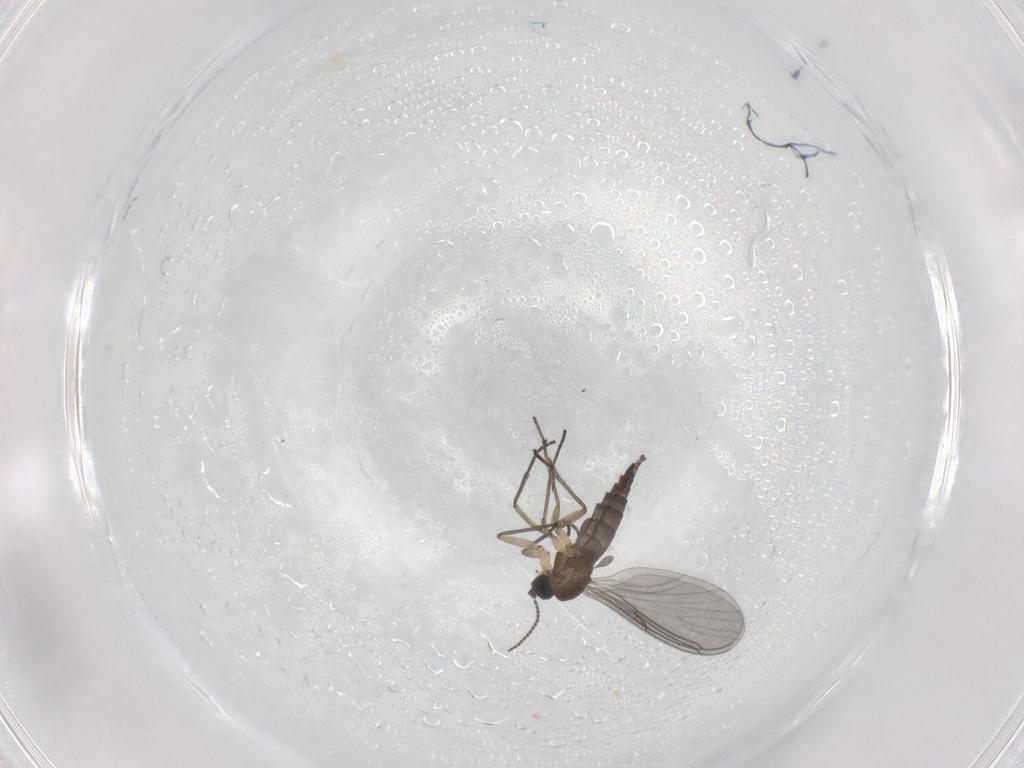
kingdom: Animalia
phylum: Arthropoda
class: Insecta
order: Diptera
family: Sciaridae
